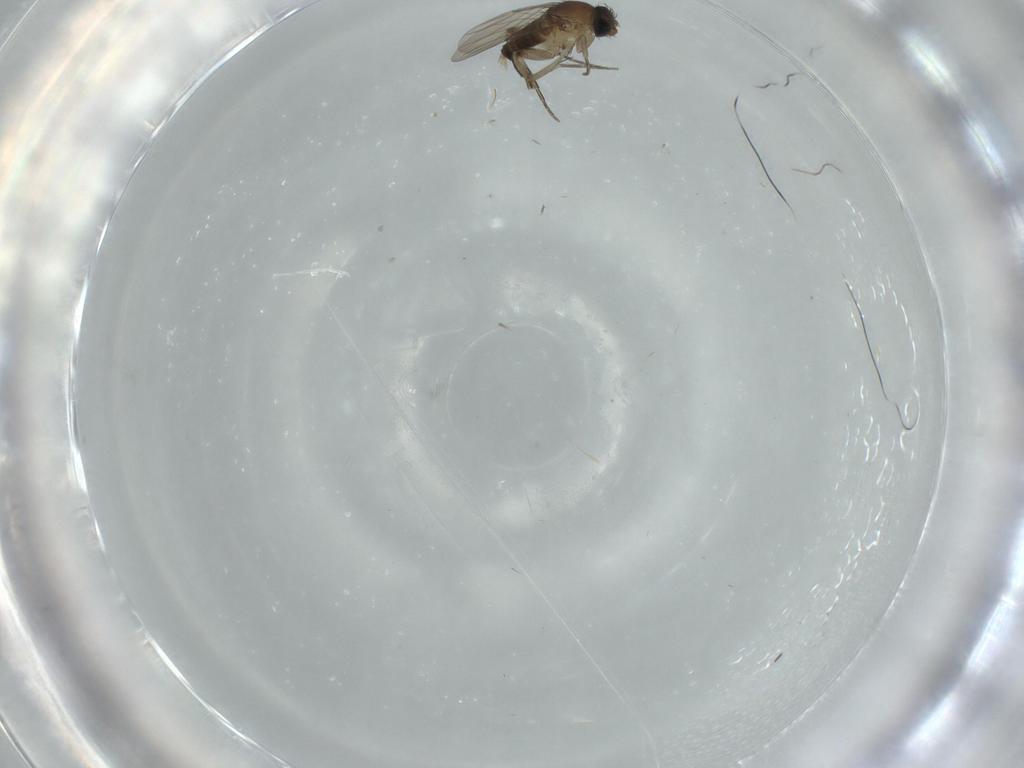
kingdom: Animalia
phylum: Arthropoda
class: Insecta
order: Diptera
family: Phoridae
